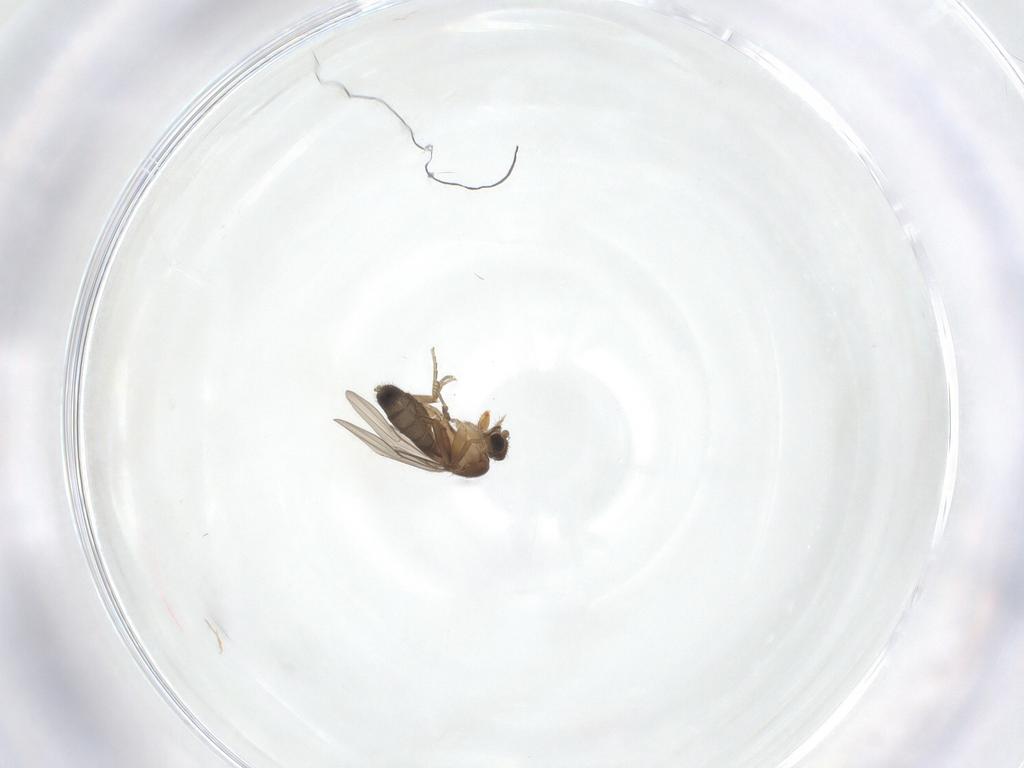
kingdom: Animalia
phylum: Arthropoda
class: Insecta
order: Diptera
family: Phoridae
